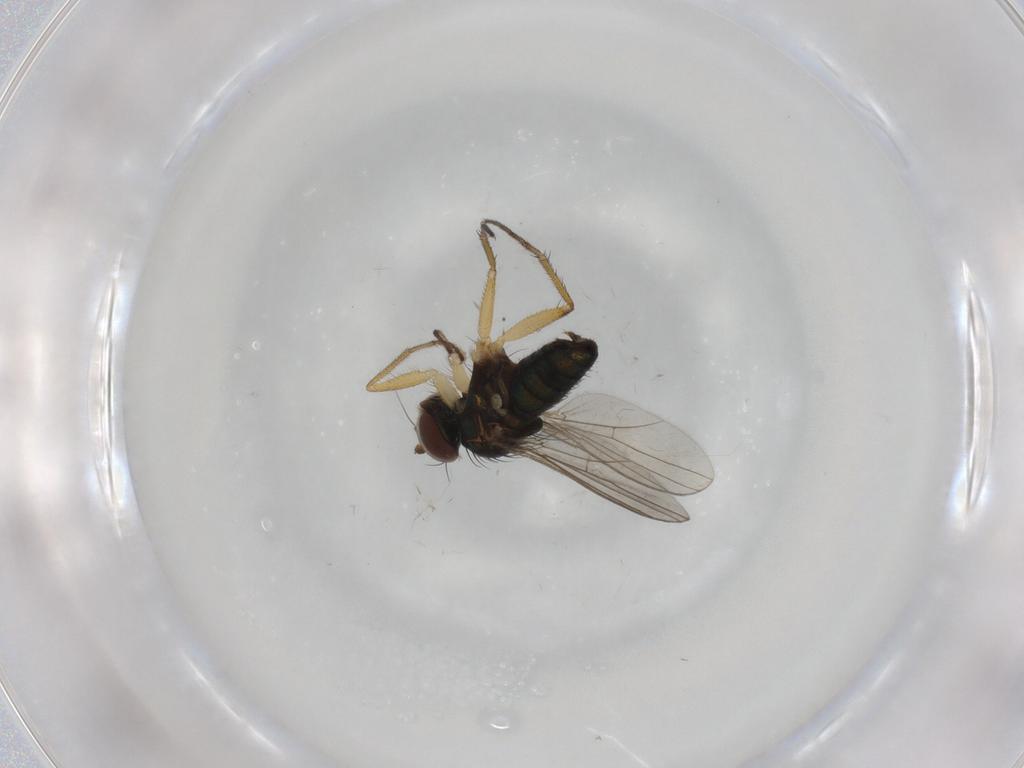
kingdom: Animalia
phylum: Arthropoda
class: Insecta
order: Diptera
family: Dolichopodidae
